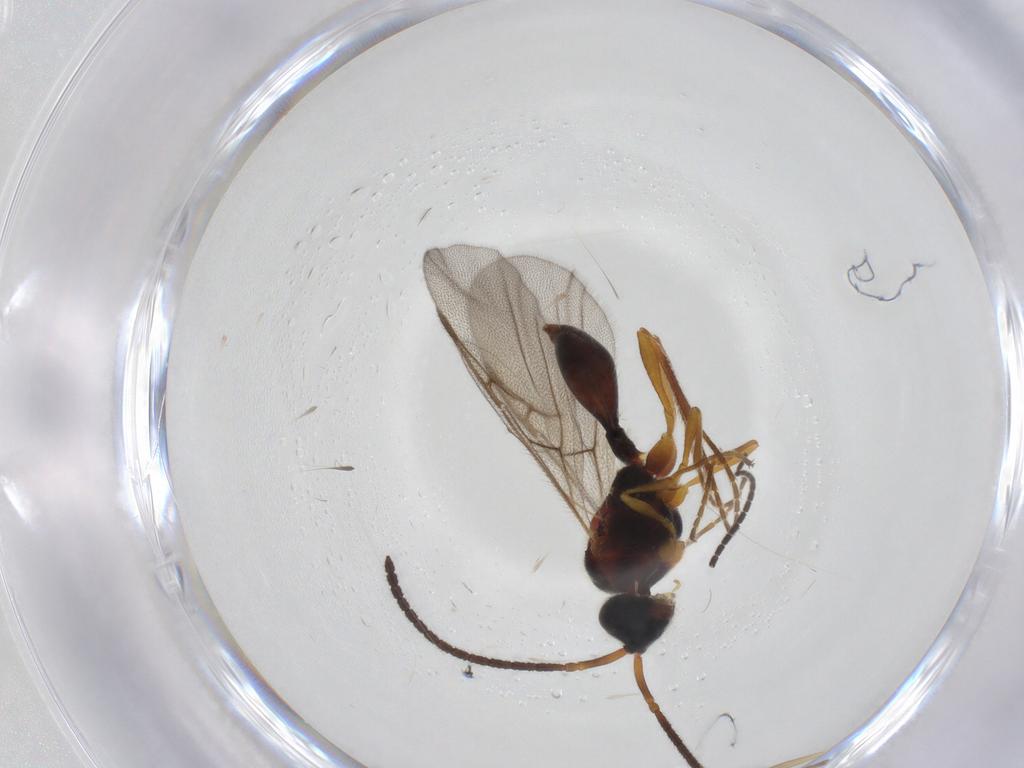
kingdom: Animalia
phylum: Arthropoda
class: Insecta
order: Hymenoptera
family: Diapriidae
